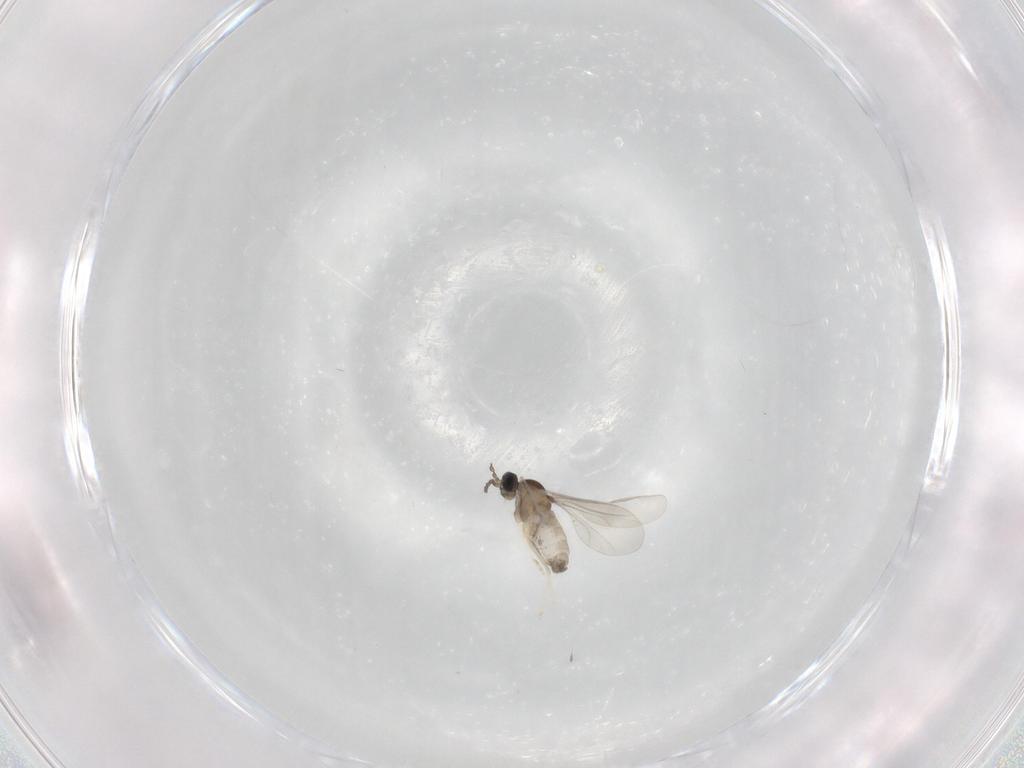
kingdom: Animalia
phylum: Arthropoda
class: Insecta
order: Diptera
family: Cecidomyiidae
